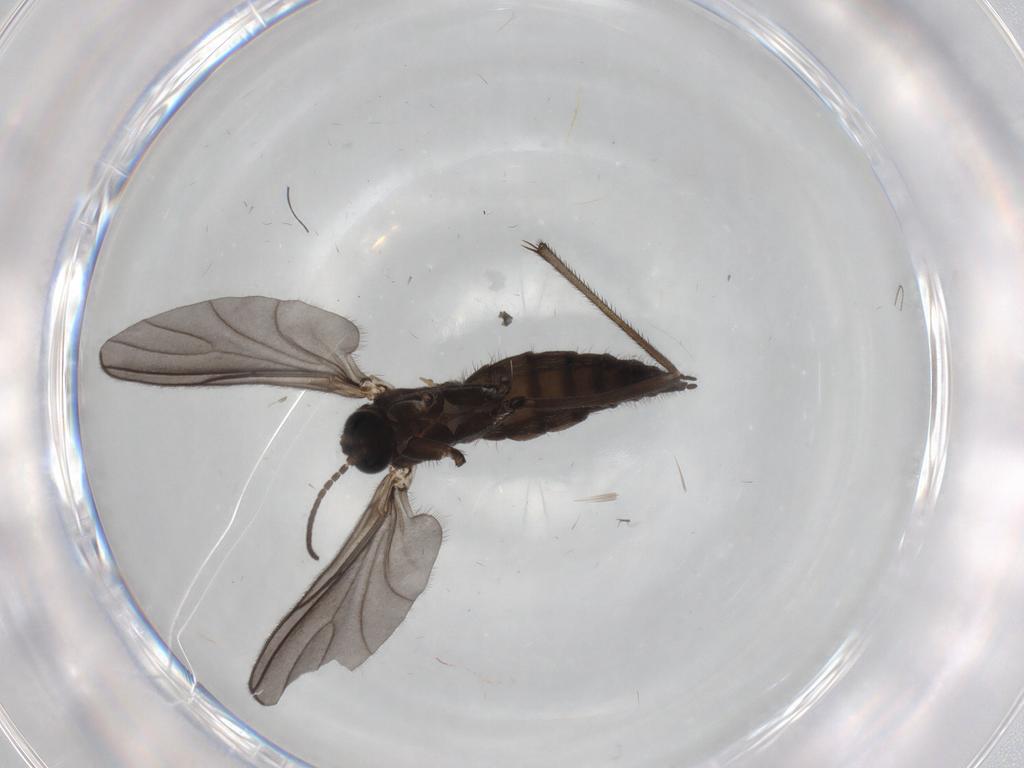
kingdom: Animalia
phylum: Arthropoda
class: Insecta
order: Diptera
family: Sciaridae
